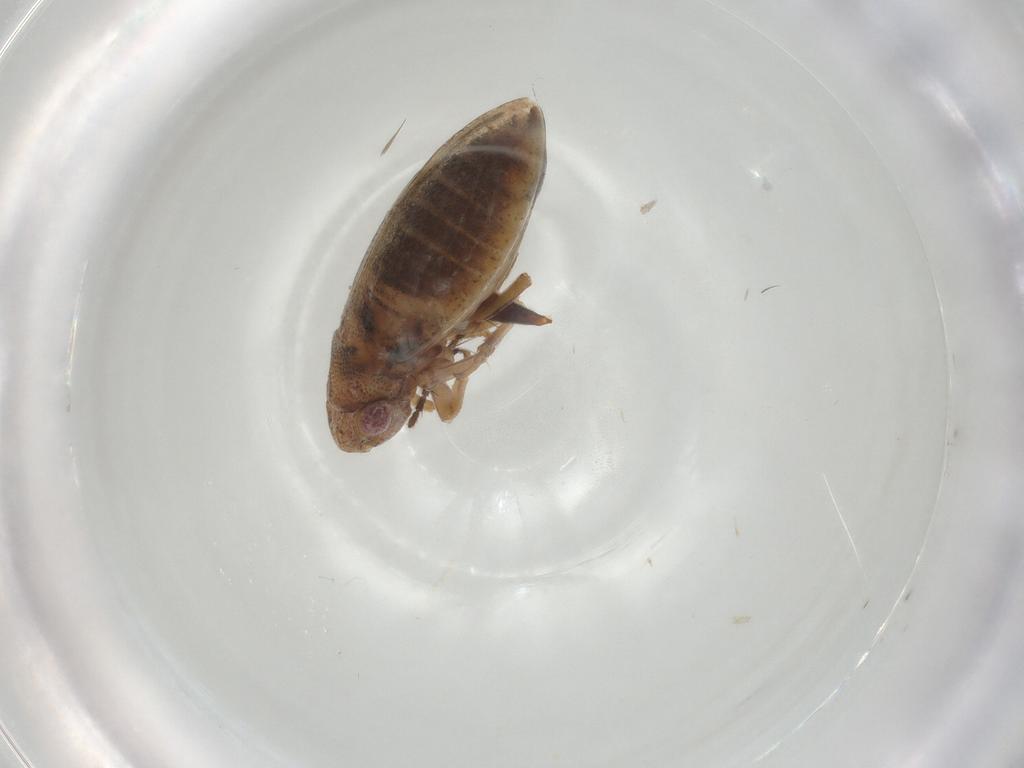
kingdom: Animalia
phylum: Arthropoda
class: Insecta
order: Hemiptera
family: Cicadellidae
